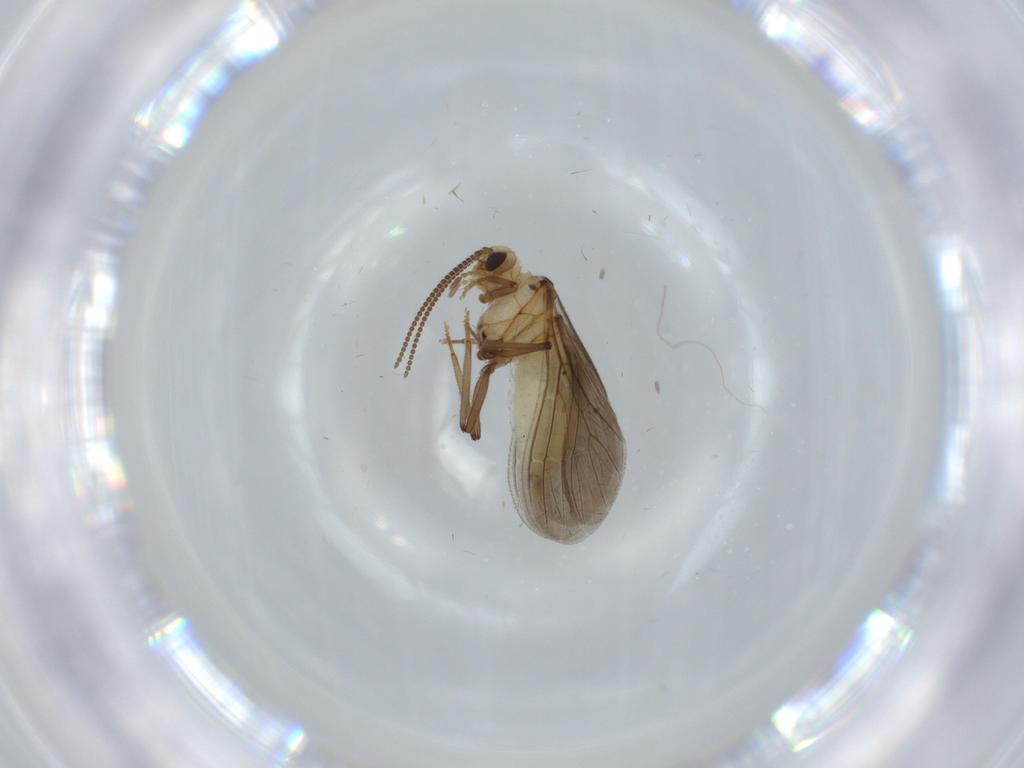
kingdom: Animalia
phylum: Arthropoda
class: Insecta
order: Neuroptera
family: Coniopterygidae
